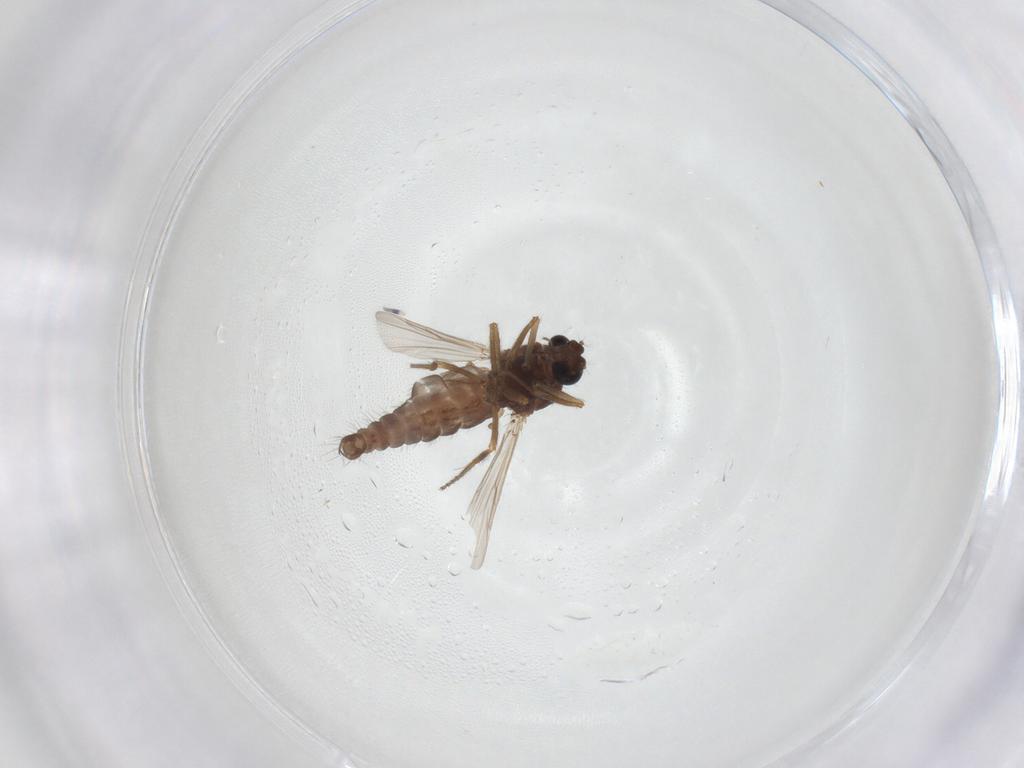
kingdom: Animalia
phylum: Arthropoda
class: Insecta
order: Diptera
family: Ceratopogonidae
